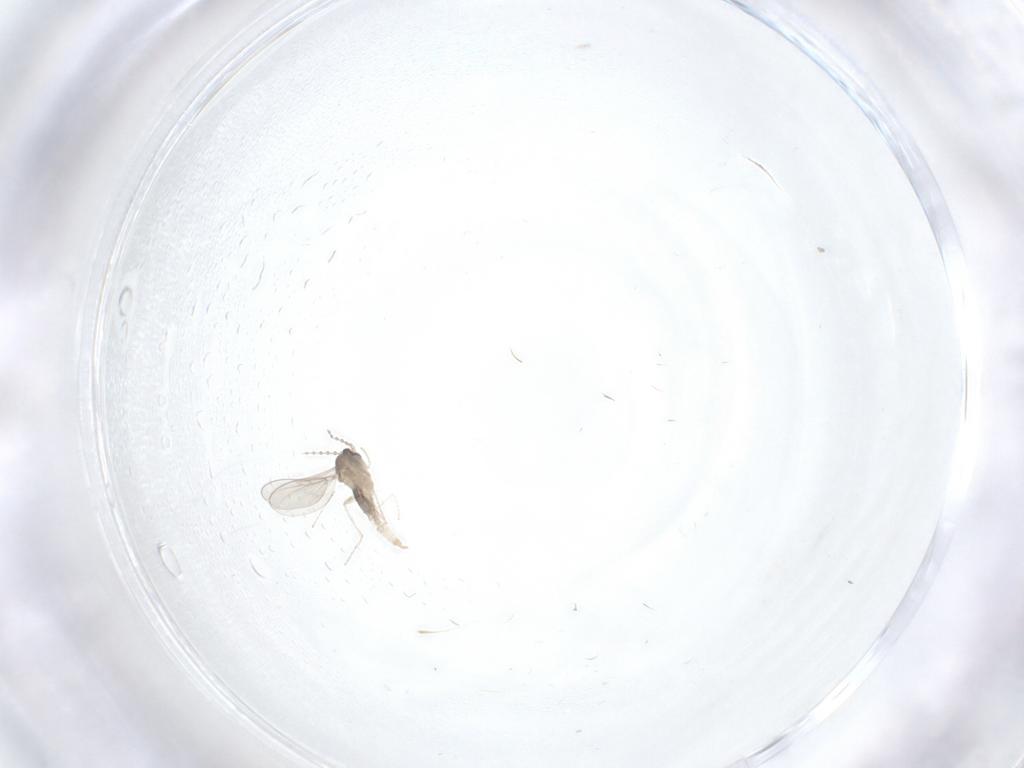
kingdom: Animalia
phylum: Arthropoda
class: Insecta
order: Diptera
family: Cecidomyiidae
